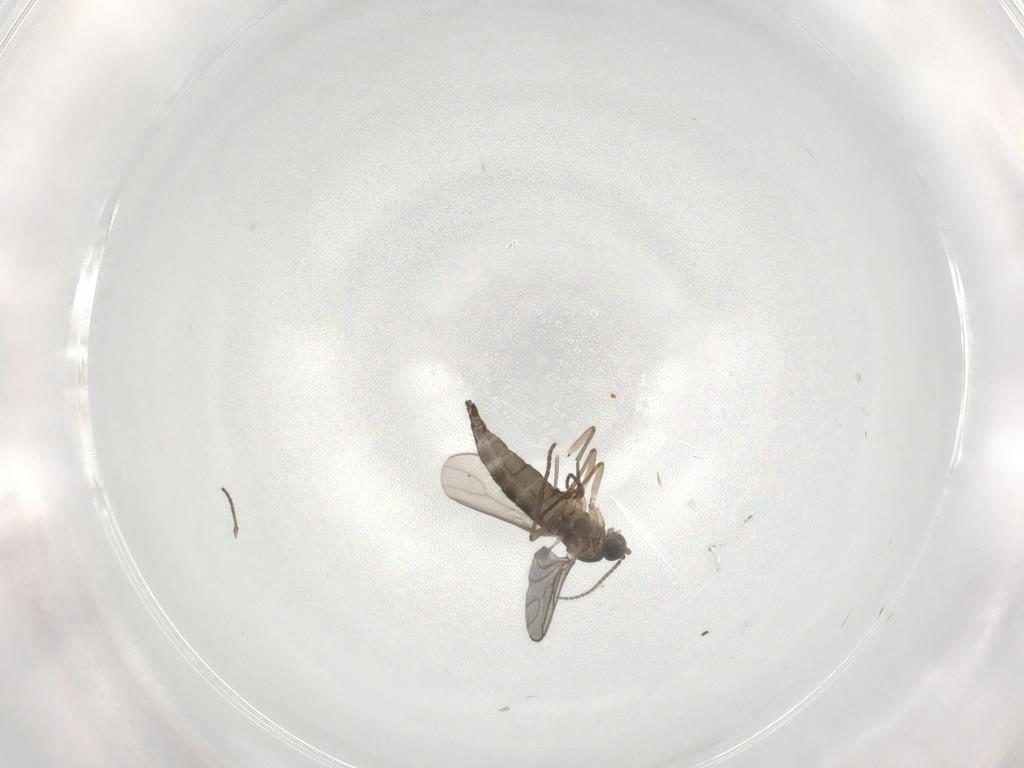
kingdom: Animalia
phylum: Arthropoda
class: Insecta
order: Diptera
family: Sciaridae
